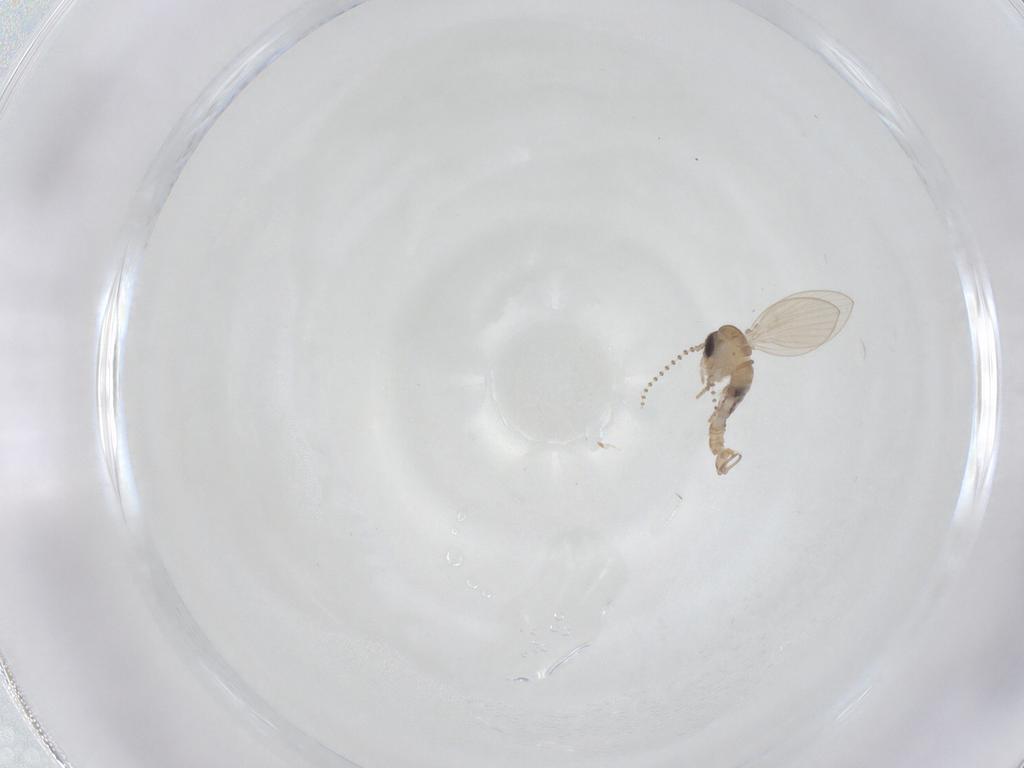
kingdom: Animalia
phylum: Arthropoda
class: Insecta
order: Diptera
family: Psychodidae
